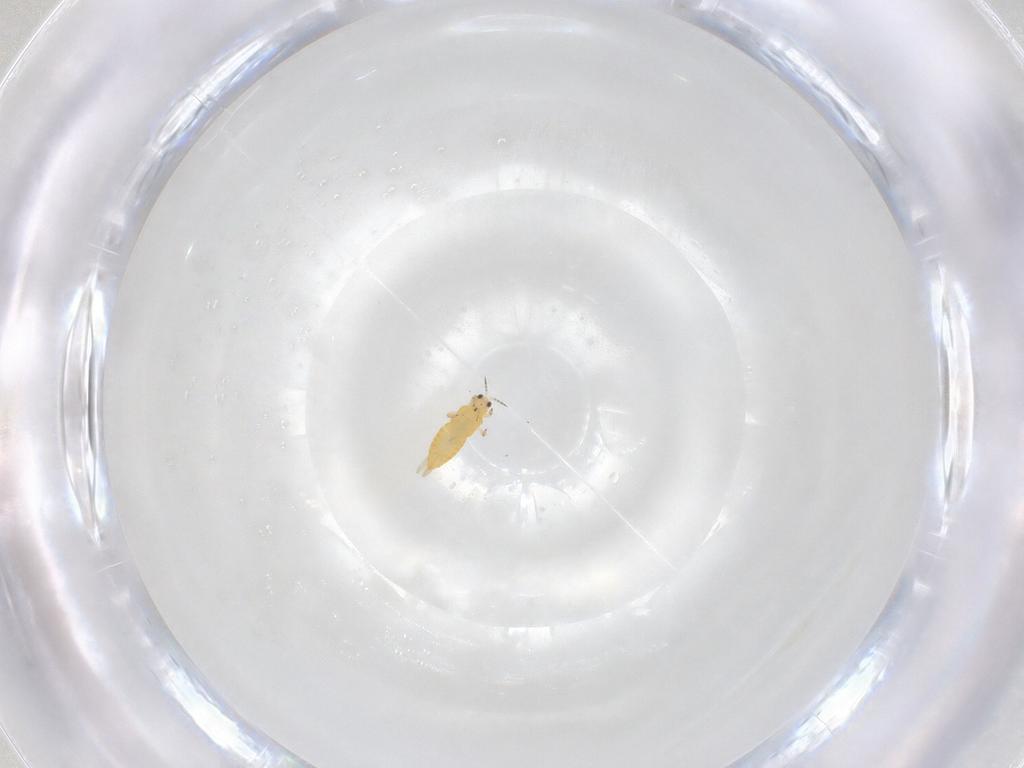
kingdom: Animalia
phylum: Arthropoda
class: Insecta
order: Thysanoptera
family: Thripidae
